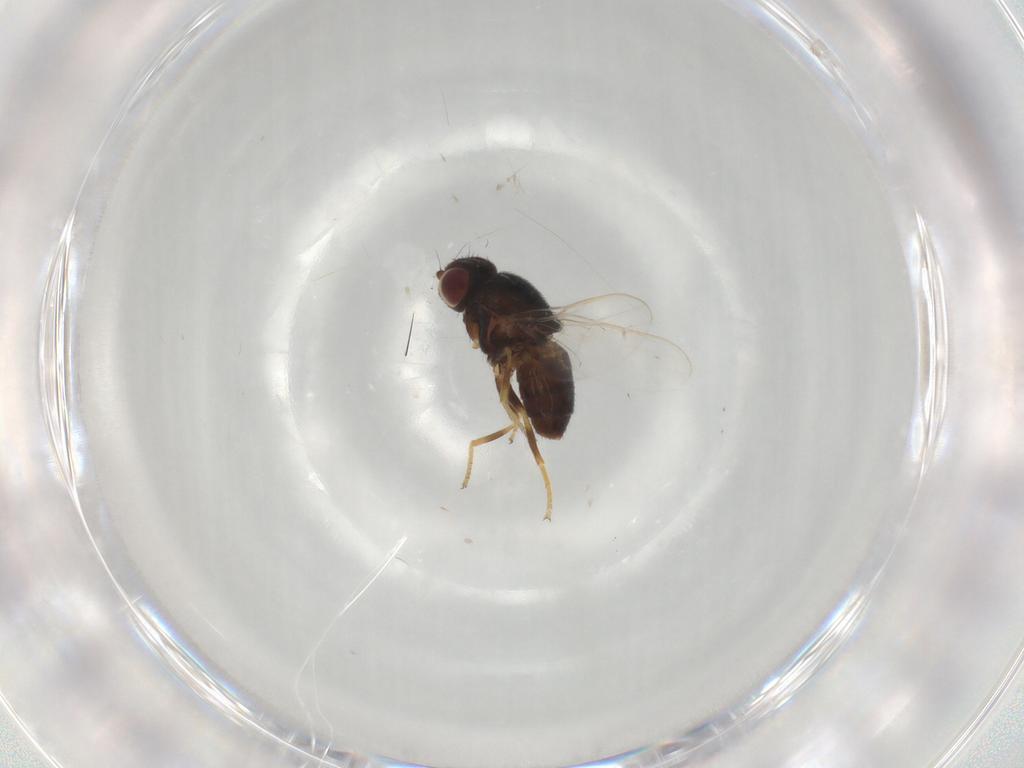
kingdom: Animalia
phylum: Arthropoda
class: Insecta
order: Diptera
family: Chloropidae
